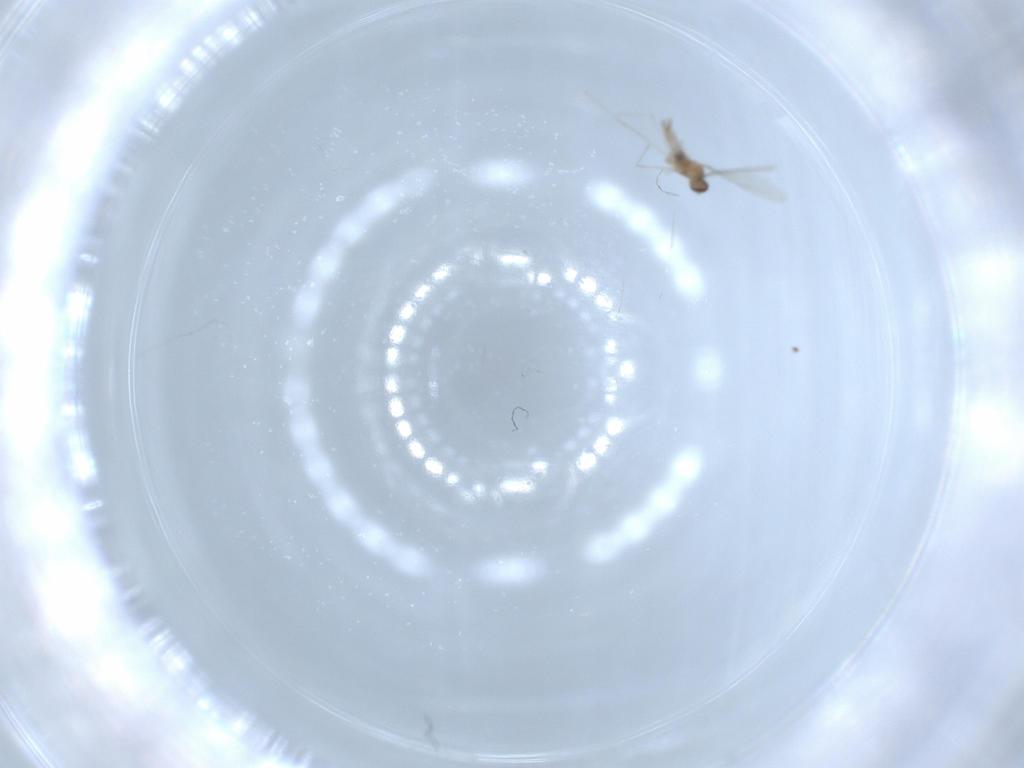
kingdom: Animalia
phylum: Arthropoda
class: Insecta
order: Diptera
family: Cecidomyiidae
